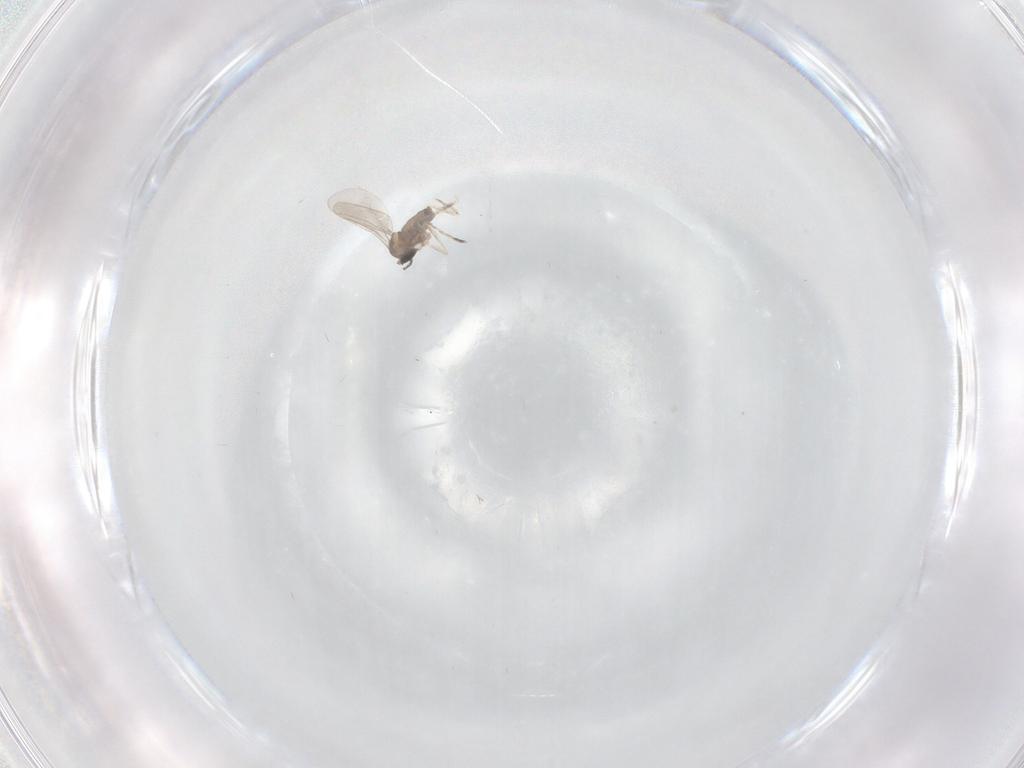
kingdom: Animalia
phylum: Arthropoda
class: Insecta
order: Diptera
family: Cecidomyiidae
